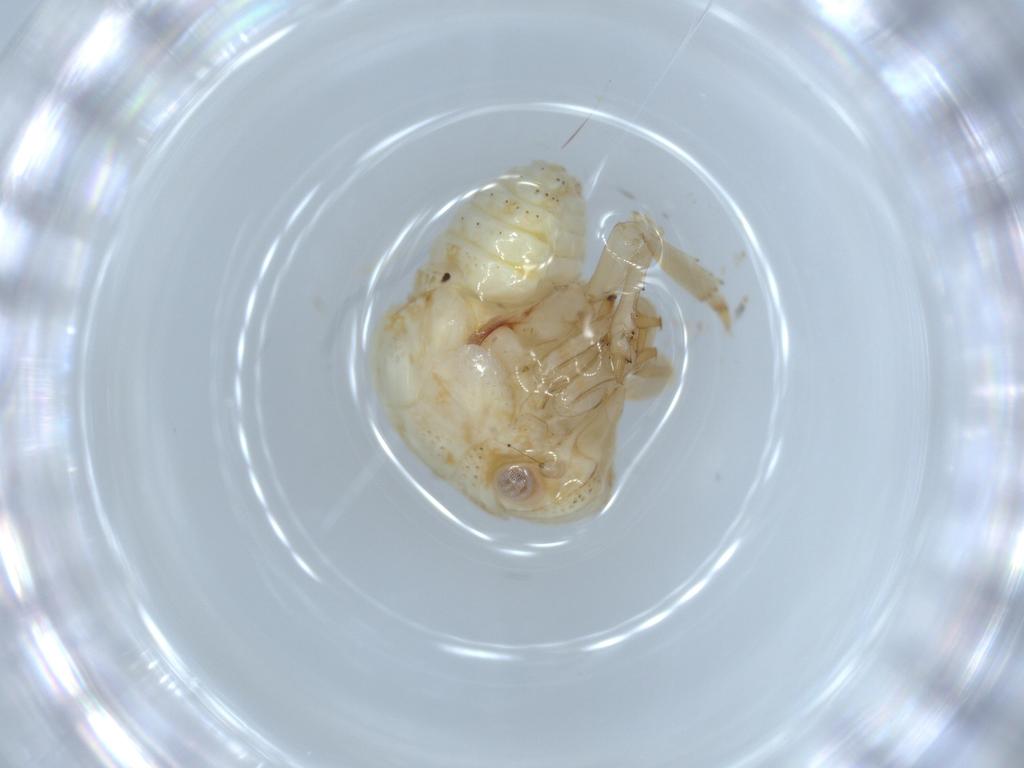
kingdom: Animalia
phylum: Arthropoda
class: Insecta
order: Hemiptera
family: Acanaloniidae
